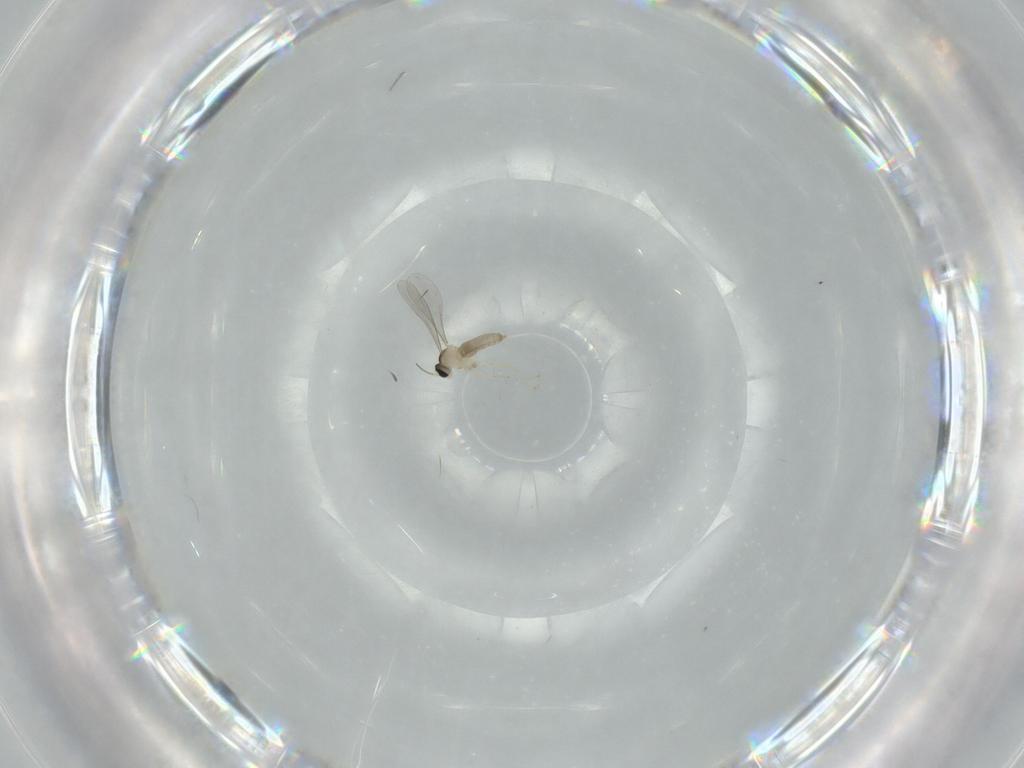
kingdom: Animalia
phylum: Arthropoda
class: Insecta
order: Diptera
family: Cecidomyiidae
